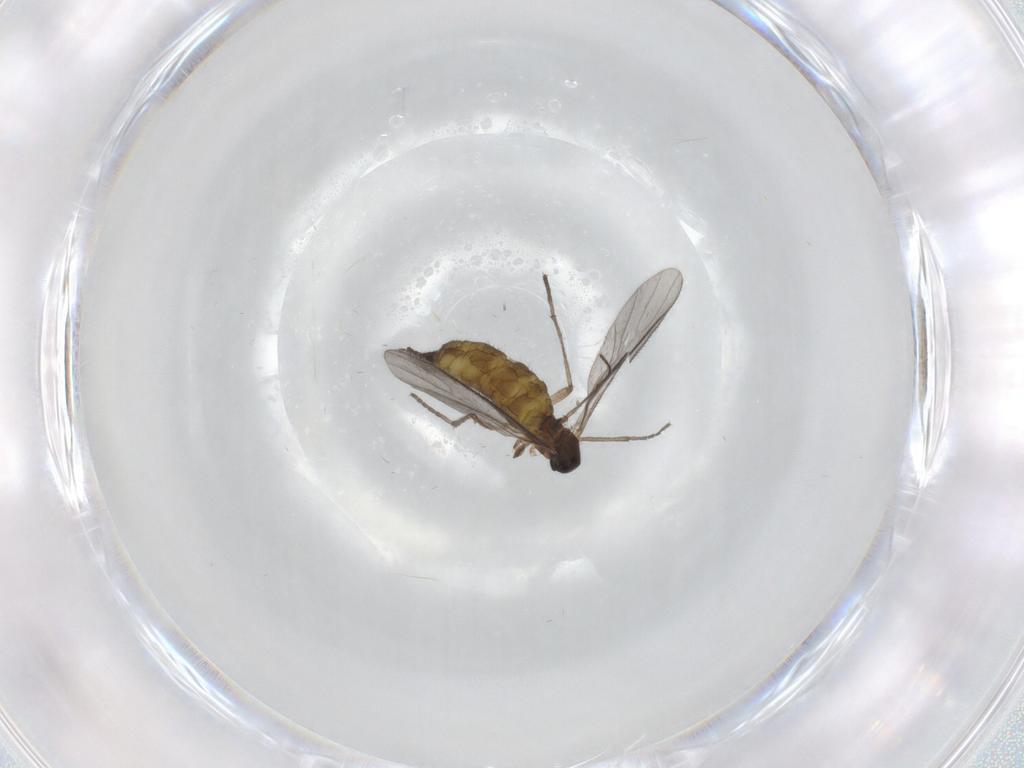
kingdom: Animalia
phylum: Arthropoda
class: Insecta
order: Diptera
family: Sciaridae
